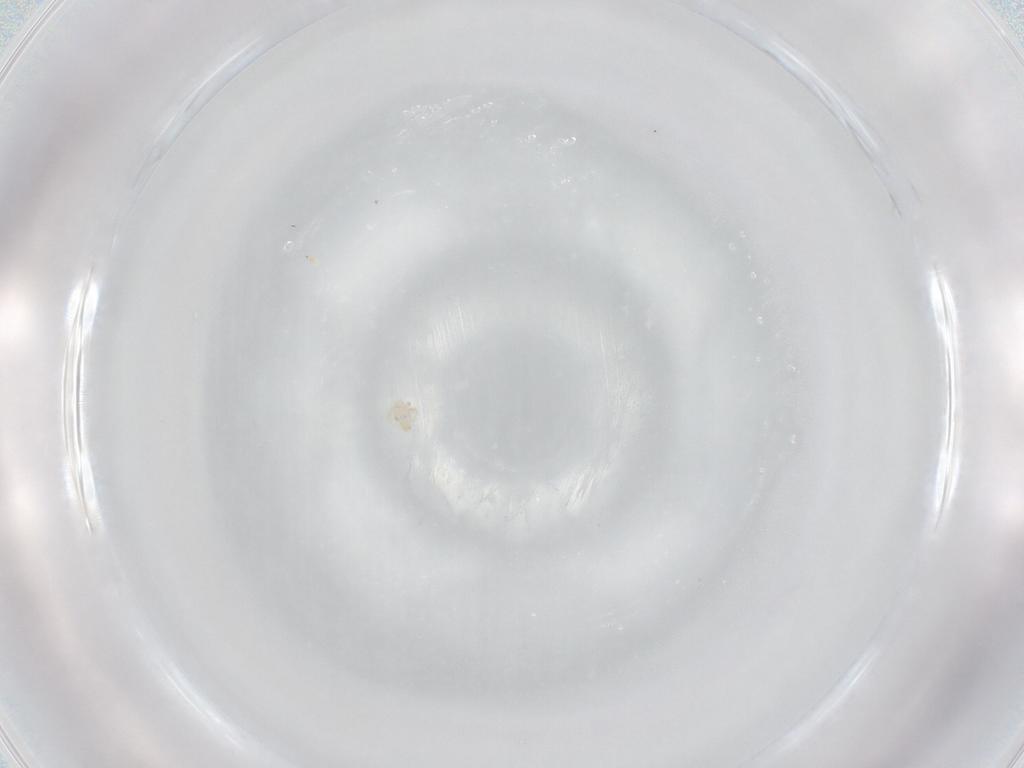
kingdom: Animalia
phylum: Arthropoda
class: Arachnida
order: Trombidiformes
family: Hydryphantidae
